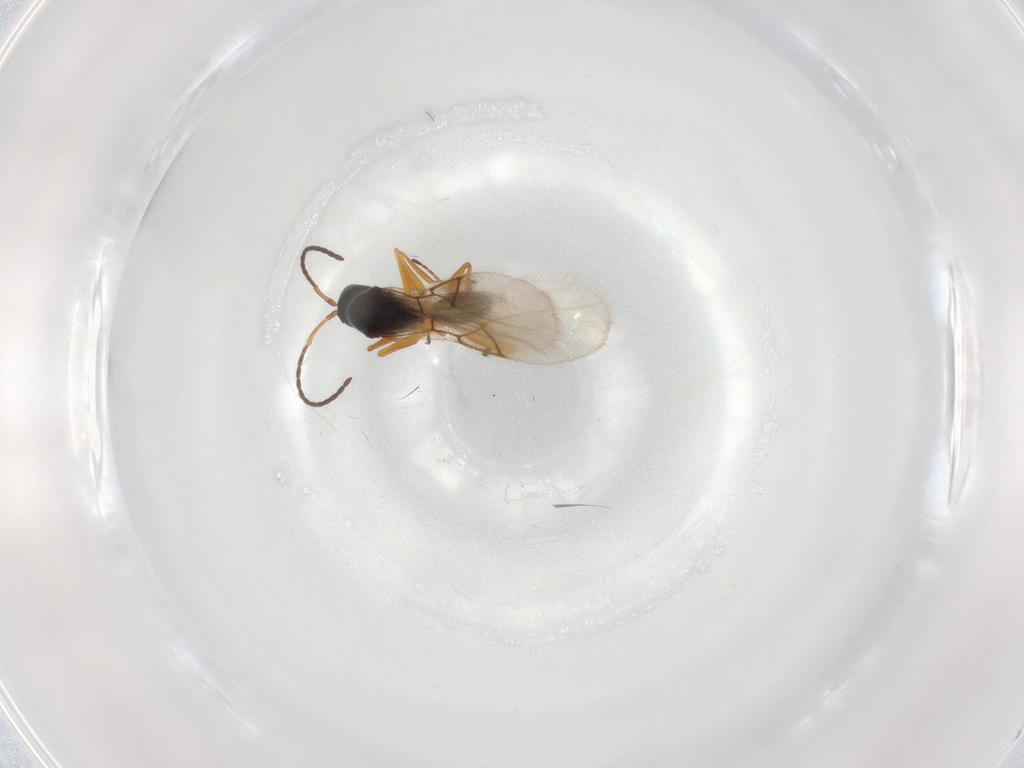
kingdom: Animalia
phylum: Arthropoda
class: Insecta
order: Hymenoptera
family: Figitidae
